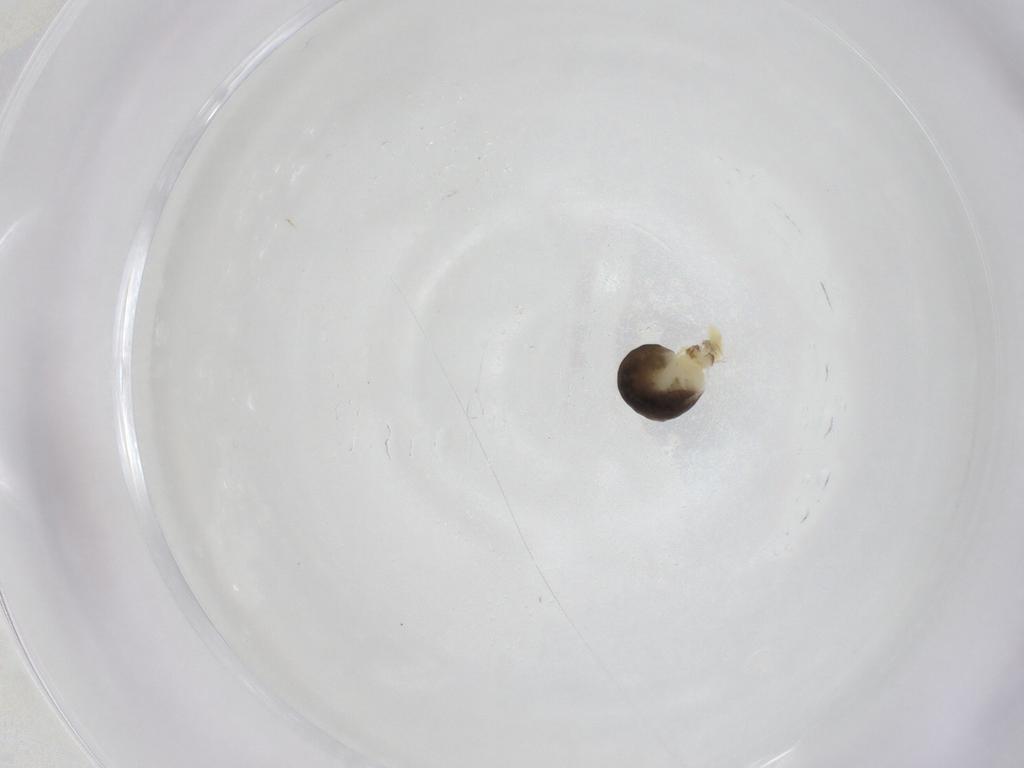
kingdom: Animalia
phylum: Arthropoda
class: Insecta
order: Hymenoptera
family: Dryinidae
